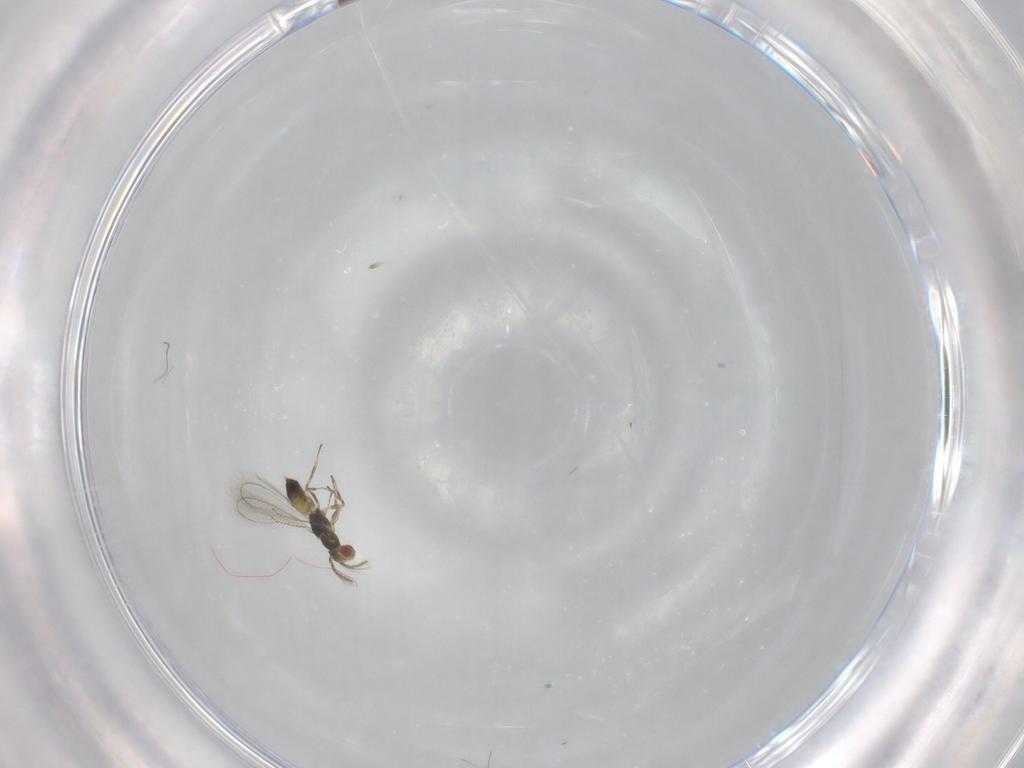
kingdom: Animalia
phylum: Arthropoda
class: Insecta
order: Hymenoptera
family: Eulophidae
